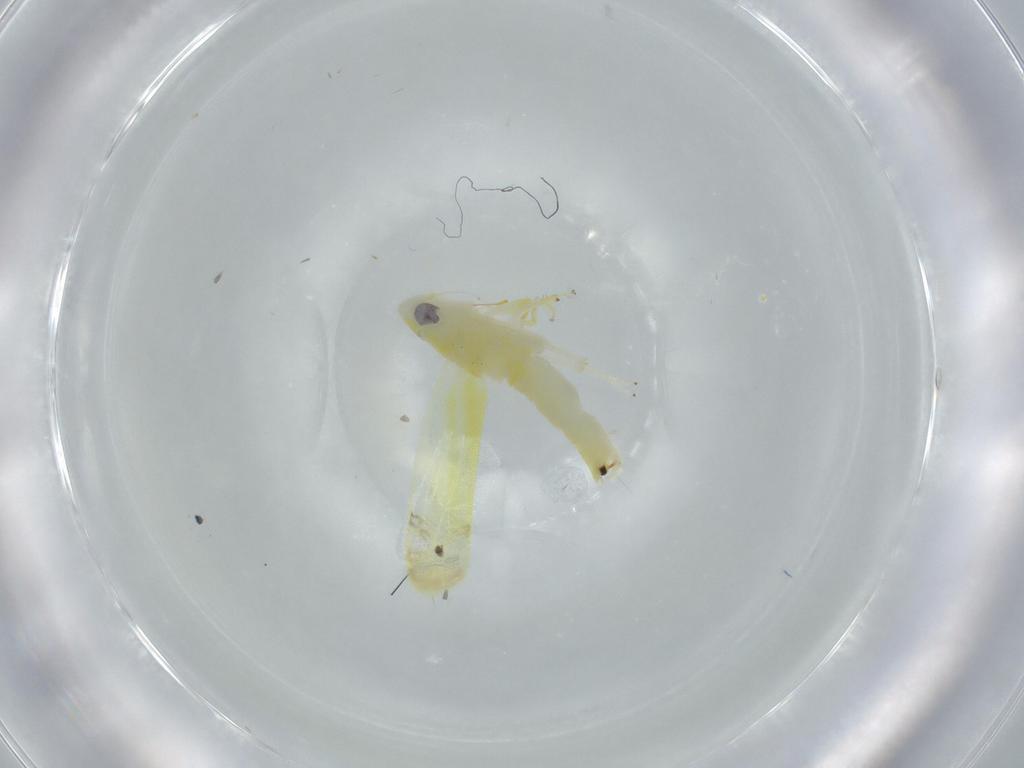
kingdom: Animalia
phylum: Arthropoda
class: Insecta
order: Hemiptera
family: Cicadellidae
